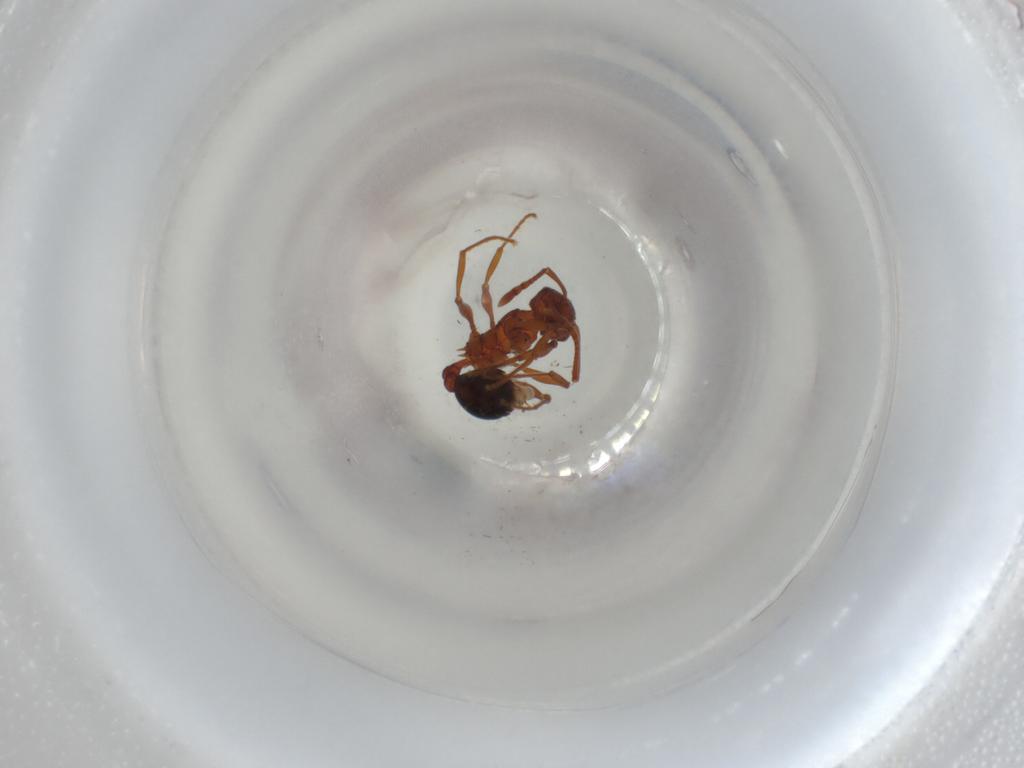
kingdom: Animalia
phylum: Arthropoda
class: Insecta
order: Hymenoptera
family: Formicidae
